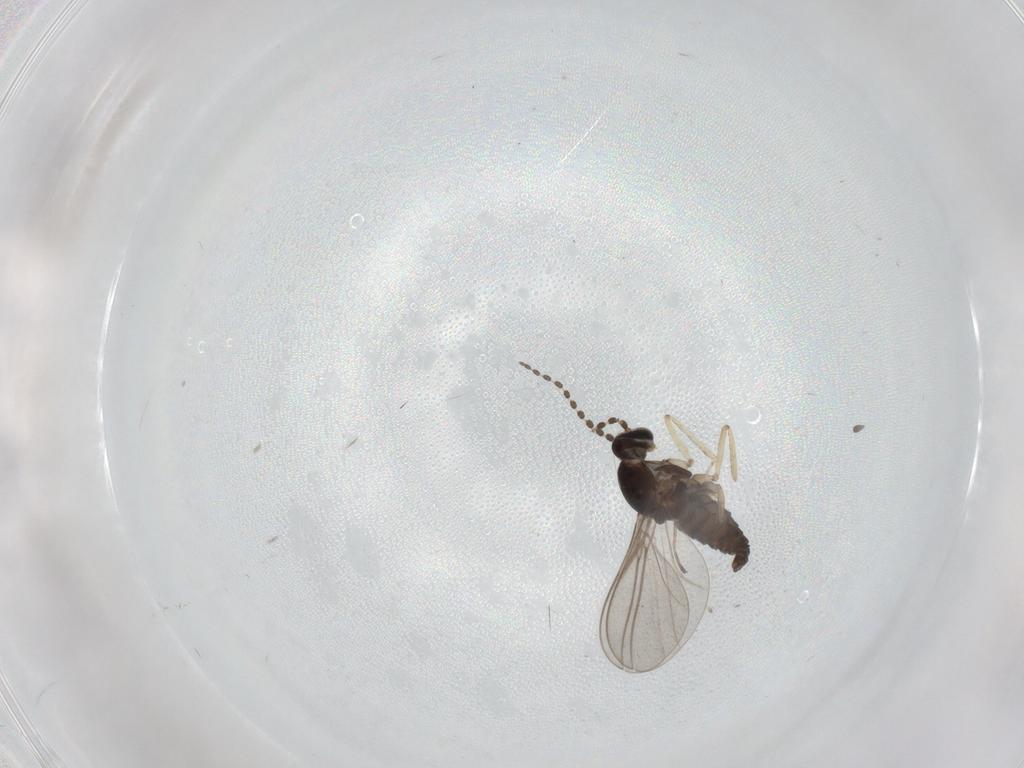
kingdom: Animalia
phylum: Arthropoda
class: Insecta
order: Diptera
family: Cecidomyiidae
